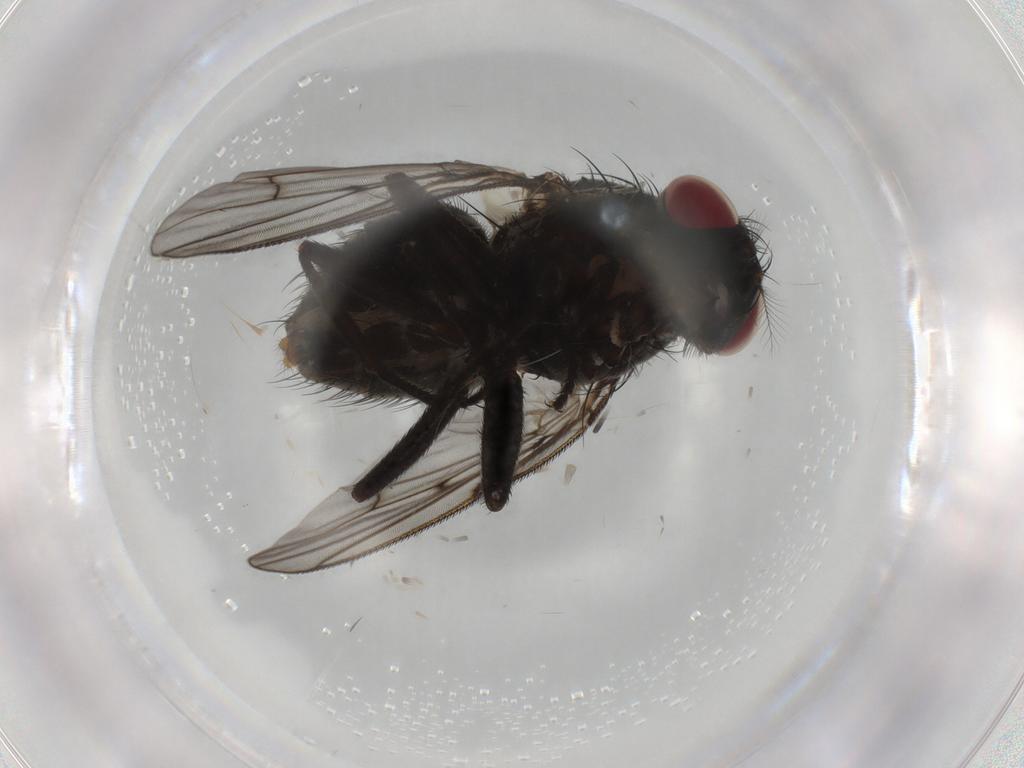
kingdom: Animalia
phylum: Arthropoda
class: Insecta
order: Diptera
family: Muscidae
